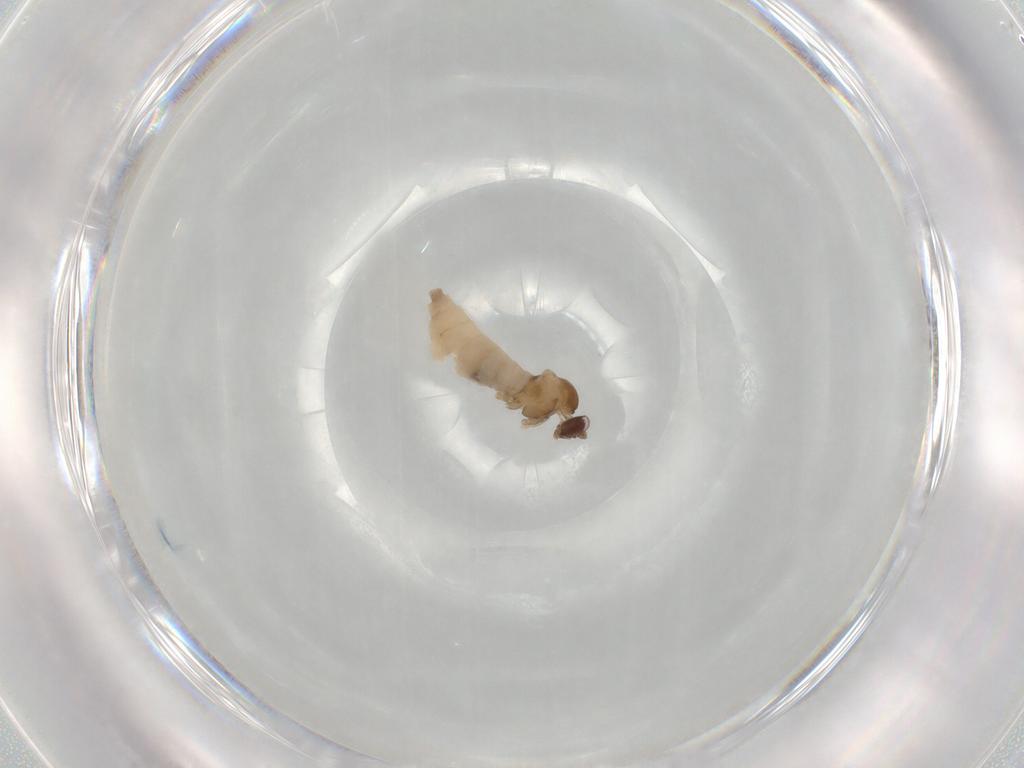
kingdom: Animalia
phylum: Arthropoda
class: Insecta
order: Diptera
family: Cecidomyiidae
